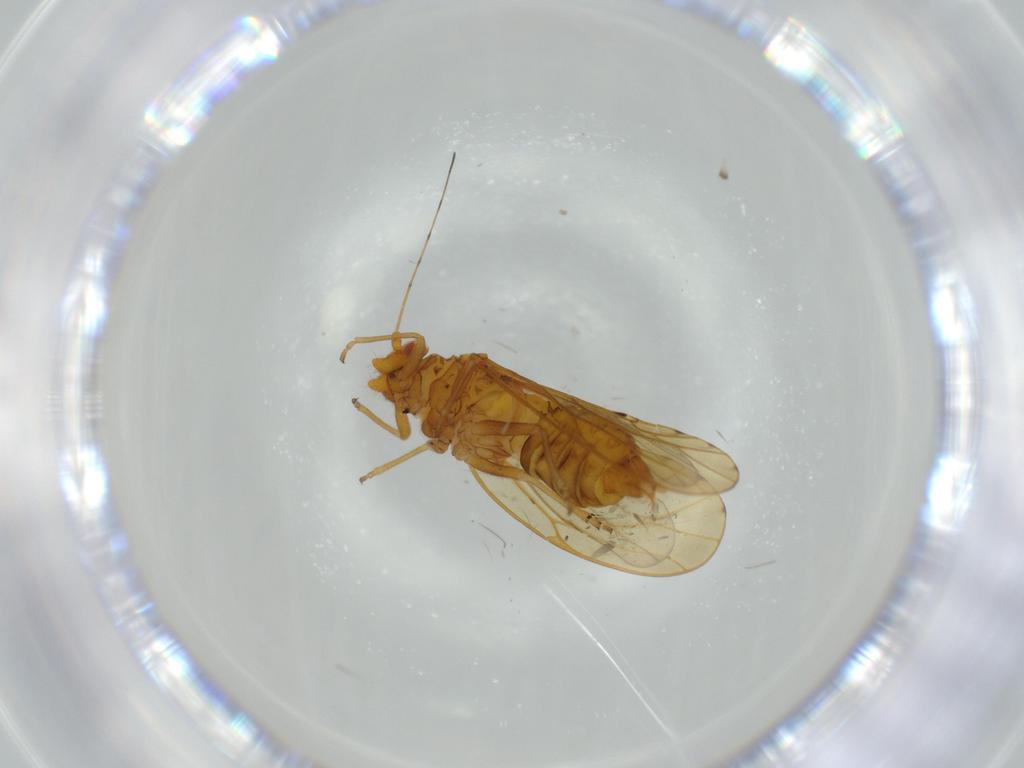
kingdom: Animalia
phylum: Arthropoda
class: Insecta
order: Hemiptera
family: Psylloidea_incertae_sedis
